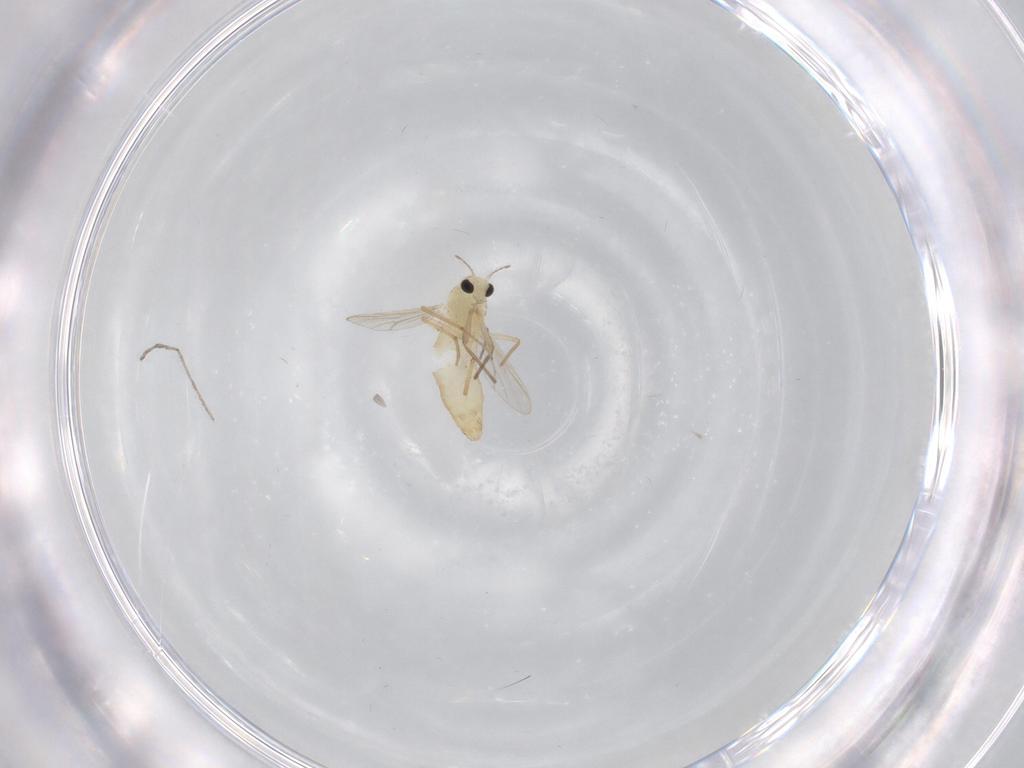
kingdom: Animalia
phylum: Arthropoda
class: Insecta
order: Diptera
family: Chironomidae
